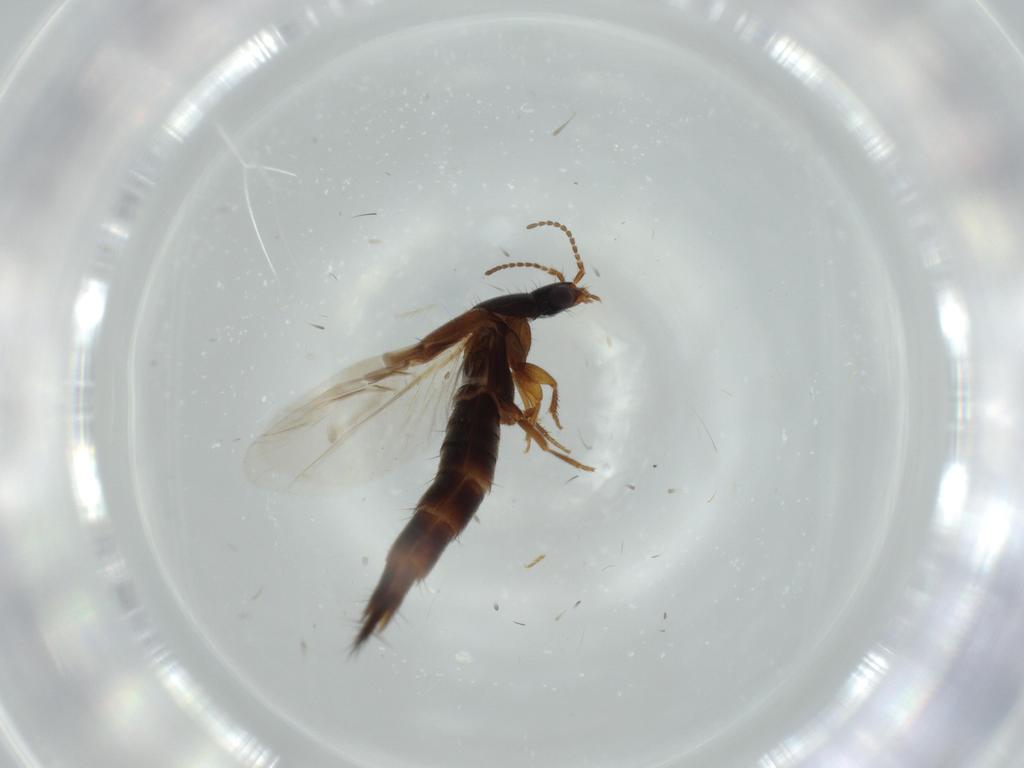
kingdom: Animalia
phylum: Arthropoda
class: Insecta
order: Coleoptera
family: Staphylinidae
